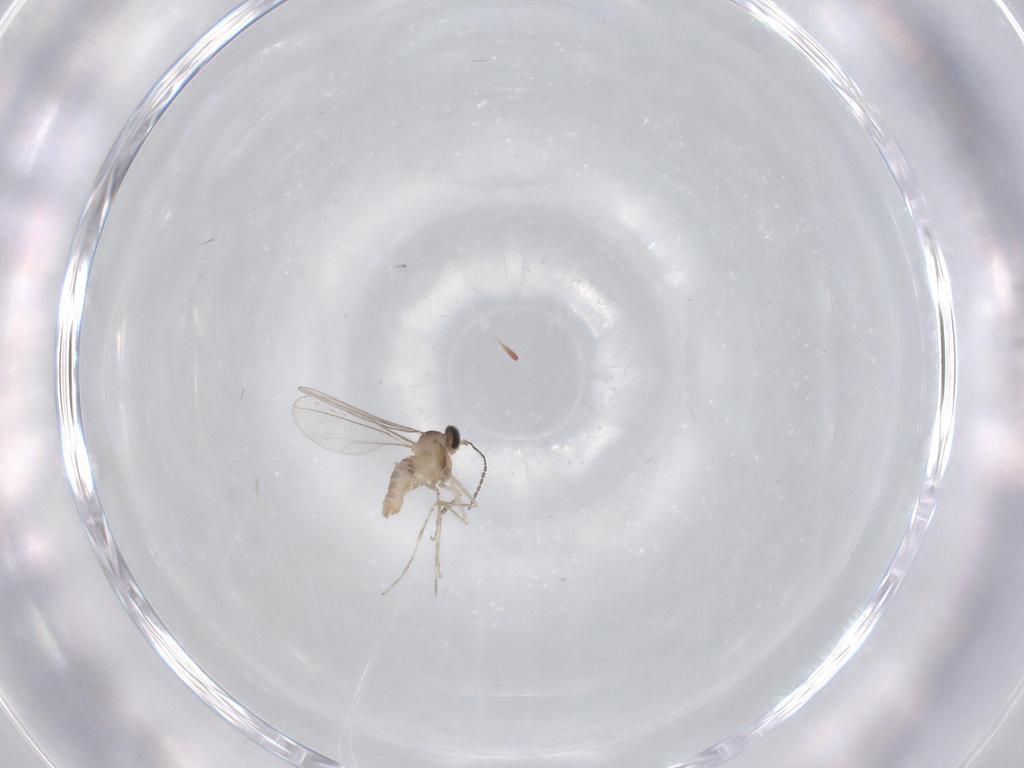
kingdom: Animalia
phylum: Arthropoda
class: Insecta
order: Diptera
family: Cecidomyiidae
